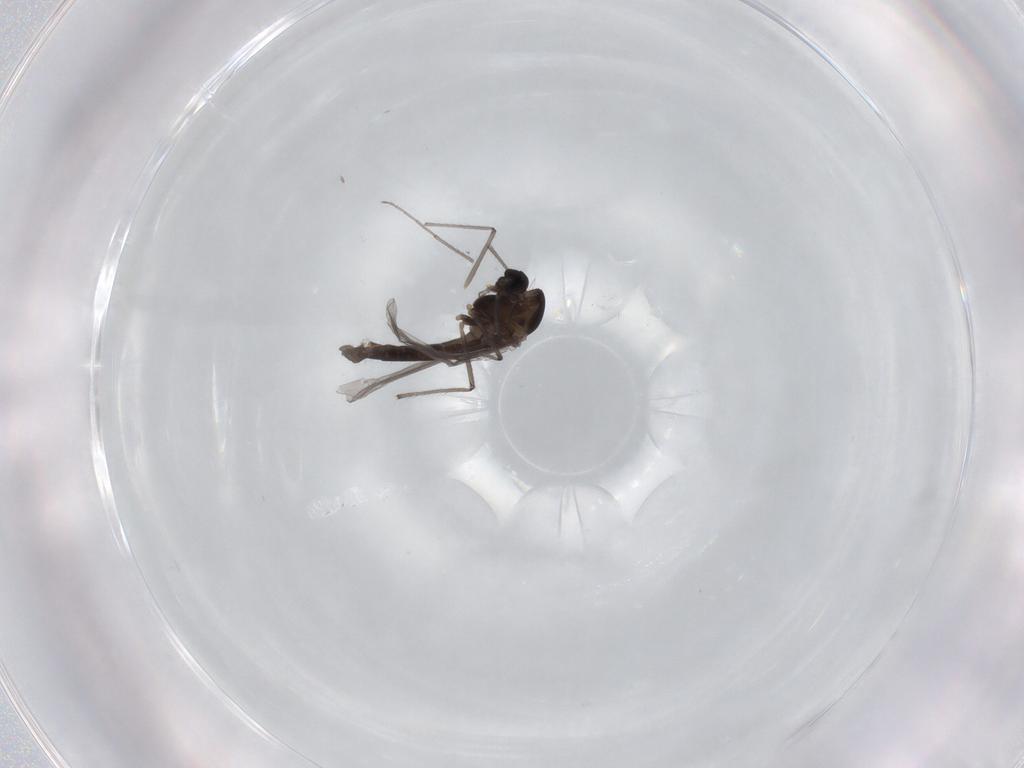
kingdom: Animalia
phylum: Arthropoda
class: Insecta
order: Diptera
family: Chironomidae
